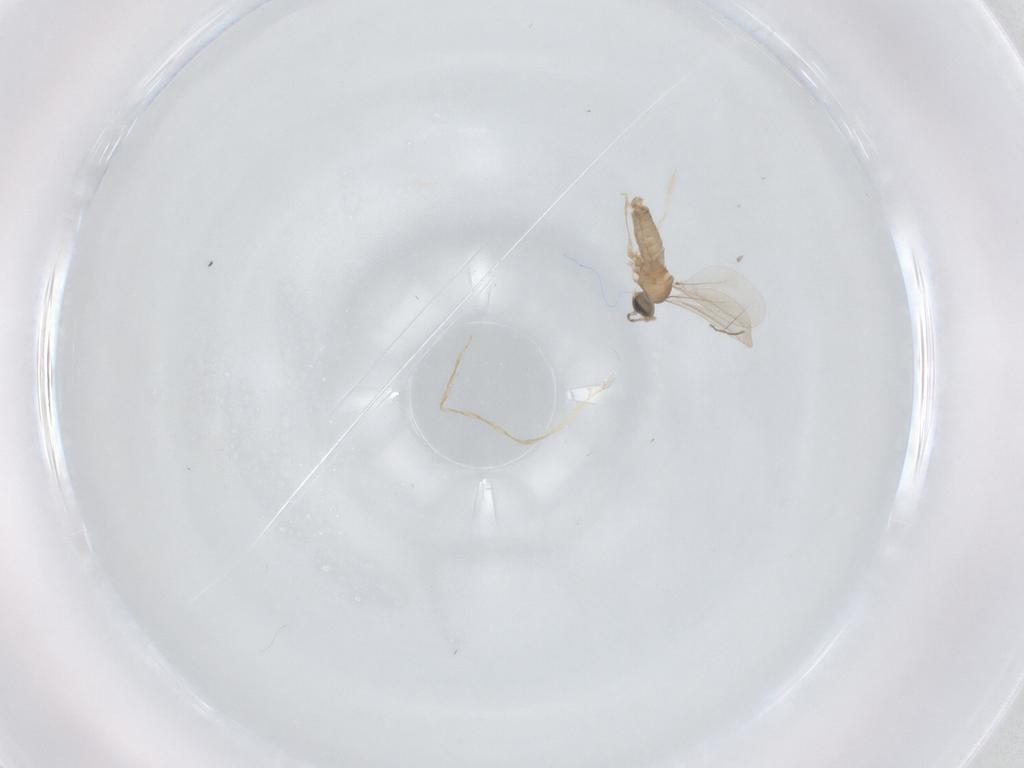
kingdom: Animalia
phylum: Arthropoda
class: Insecta
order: Diptera
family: Ceratopogonidae
